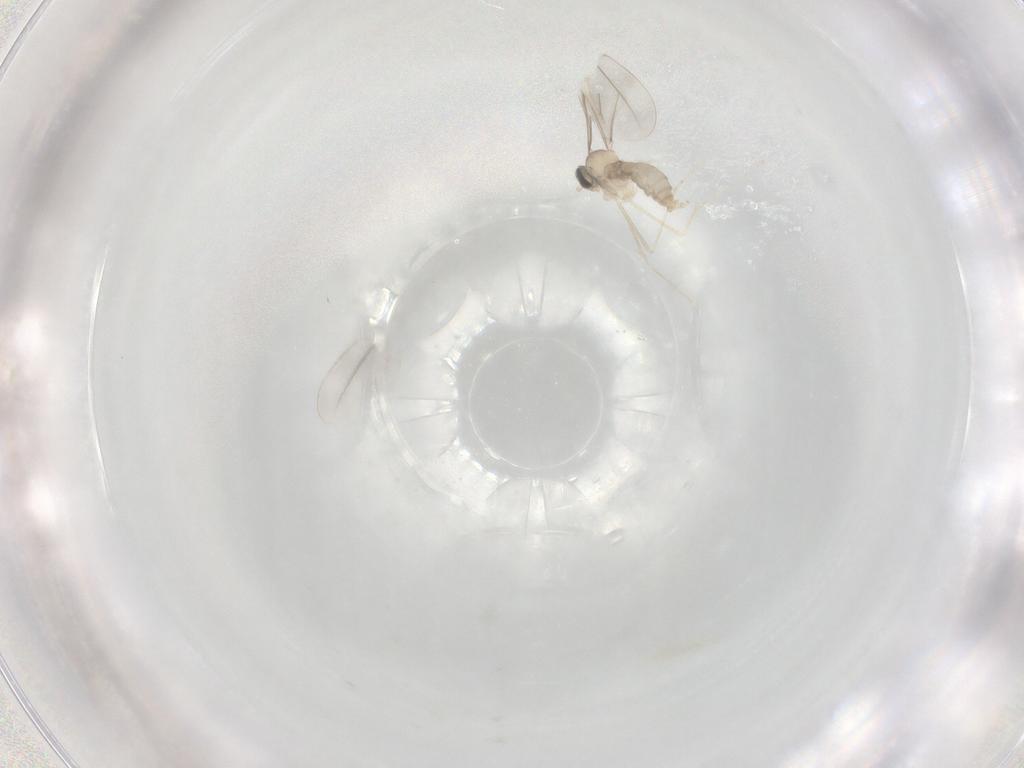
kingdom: Animalia
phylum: Arthropoda
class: Insecta
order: Diptera
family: Cecidomyiidae
